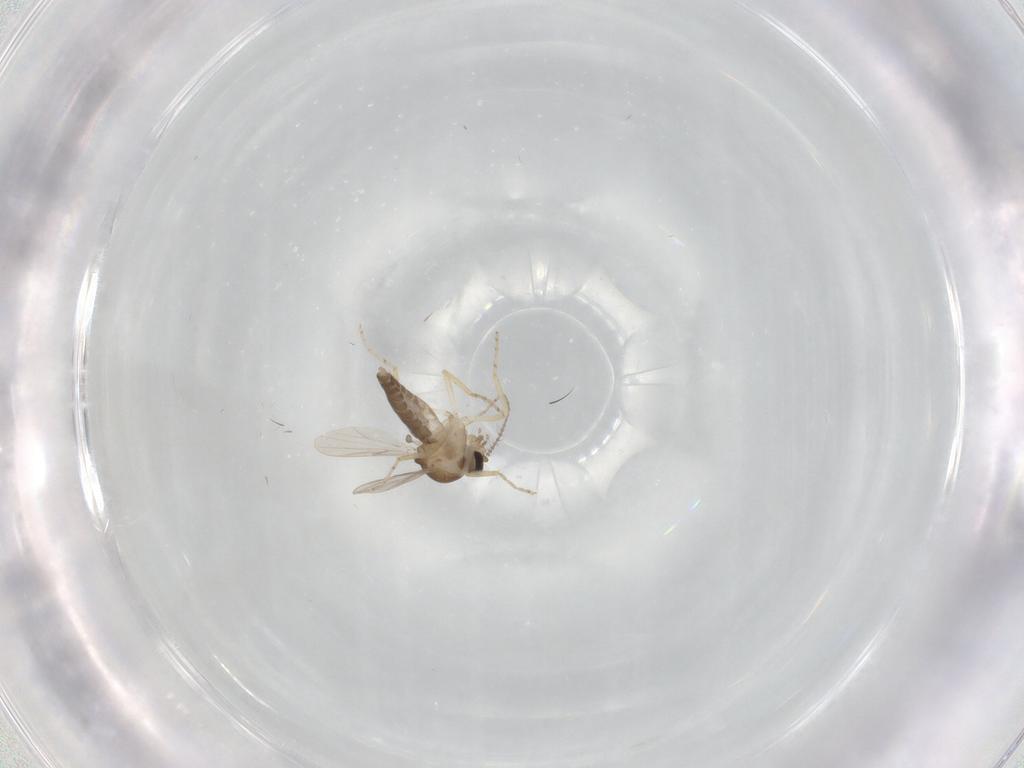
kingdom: Animalia
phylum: Arthropoda
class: Insecta
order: Diptera
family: Ceratopogonidae
